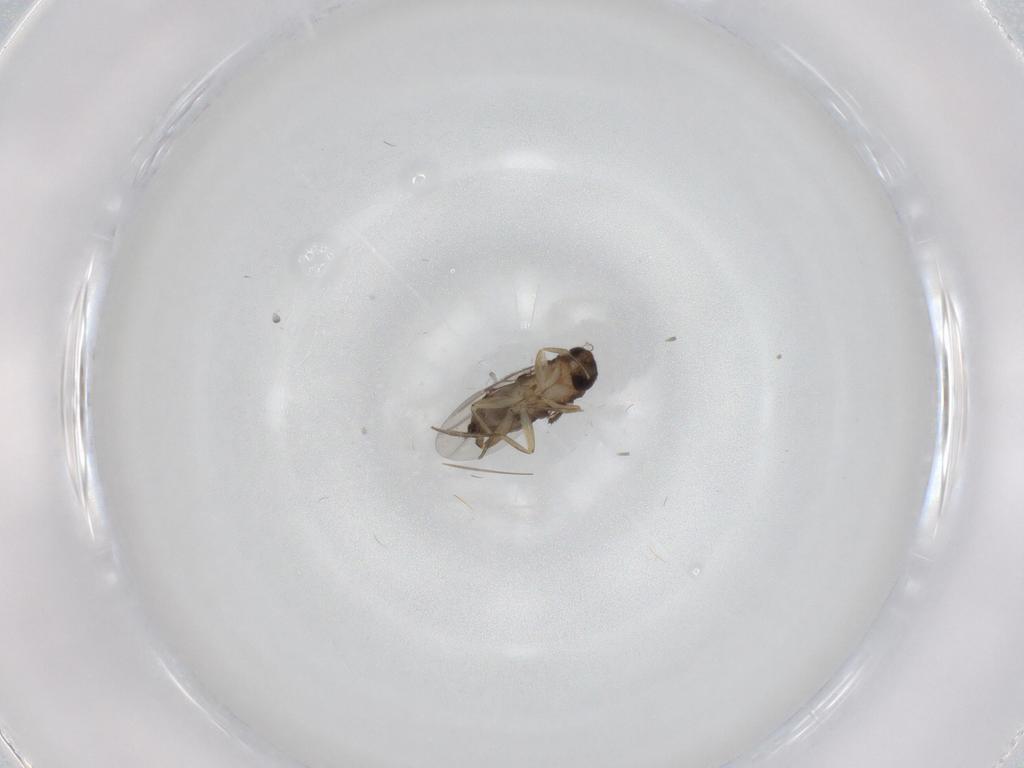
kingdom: Animalia
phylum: Arthropoda
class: Insecta
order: Diptera
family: Phoridae
